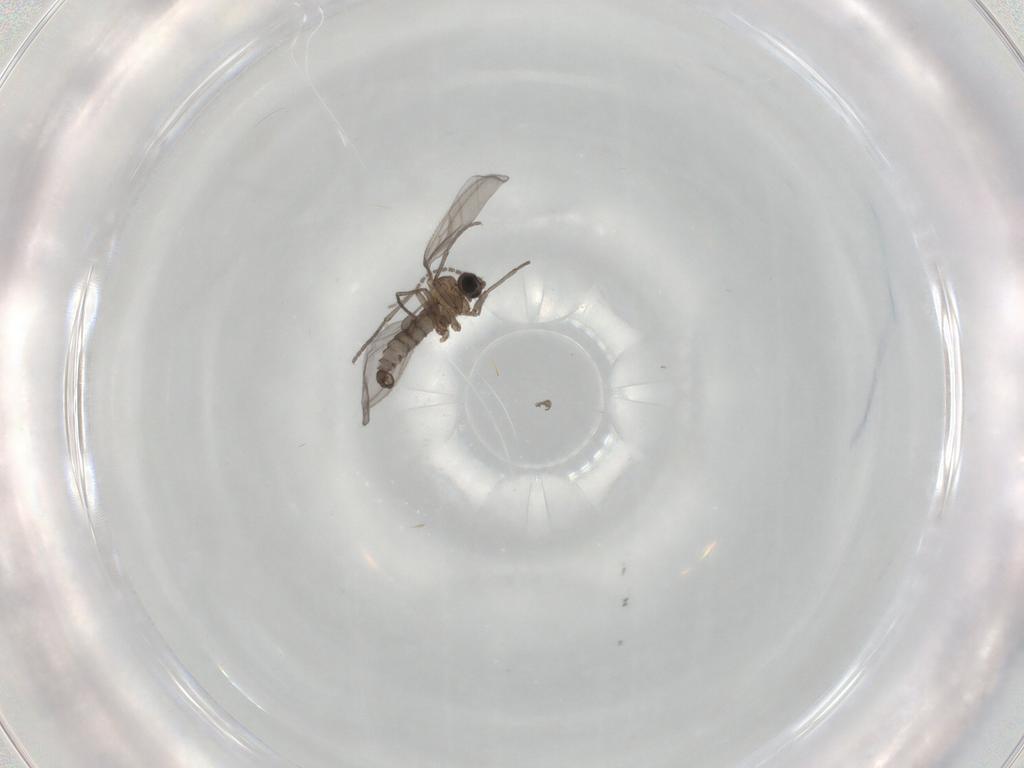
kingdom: Animalia
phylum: Arthropoda
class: Insecta
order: Diptera
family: Sciaridae
